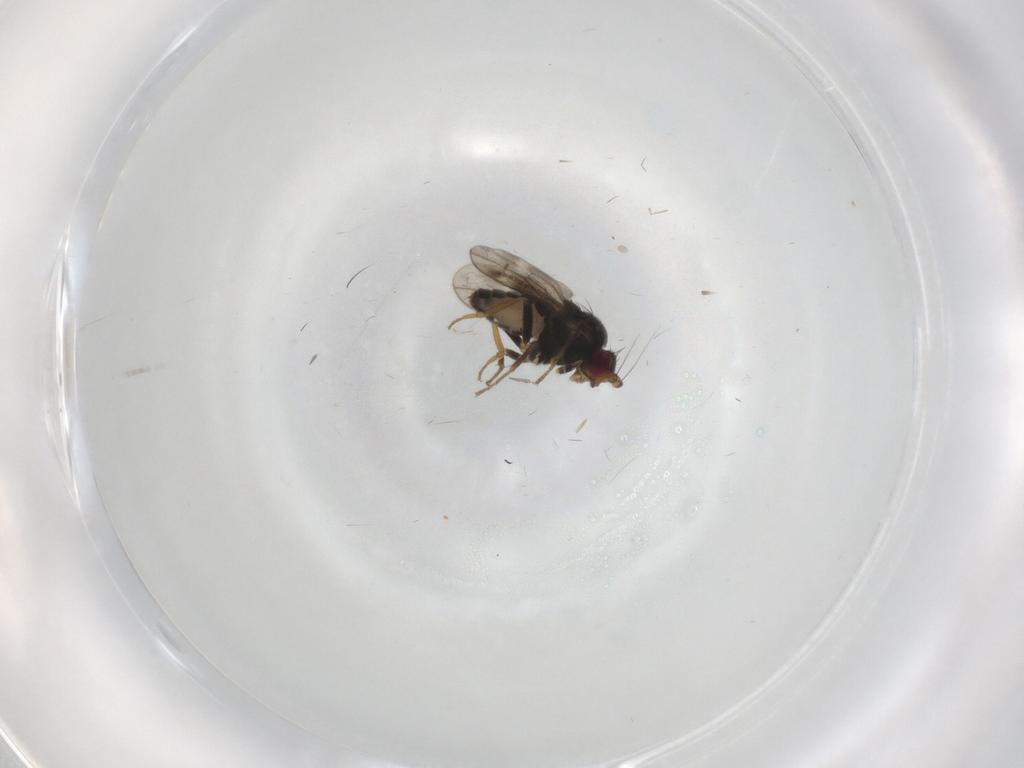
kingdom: Animalia
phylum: Arthropoda
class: Insecta
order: Diptera
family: Sphaeroceridae
